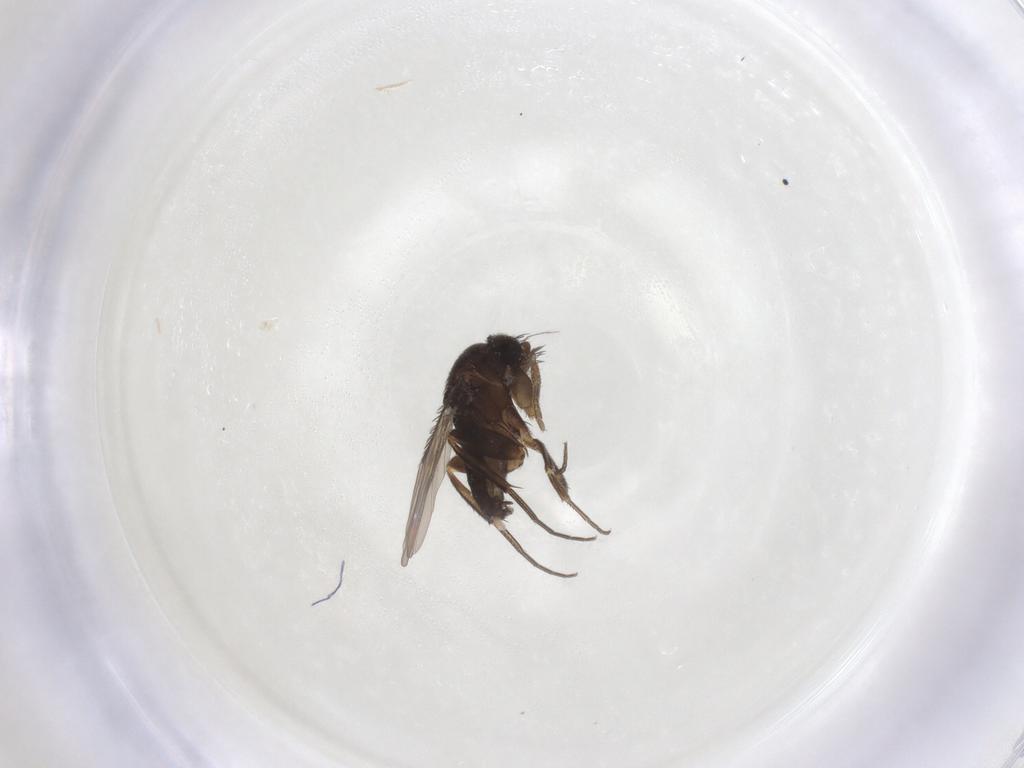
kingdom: Animalia
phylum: Arthropoda
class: Insecta
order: Diptera
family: Phoridae
